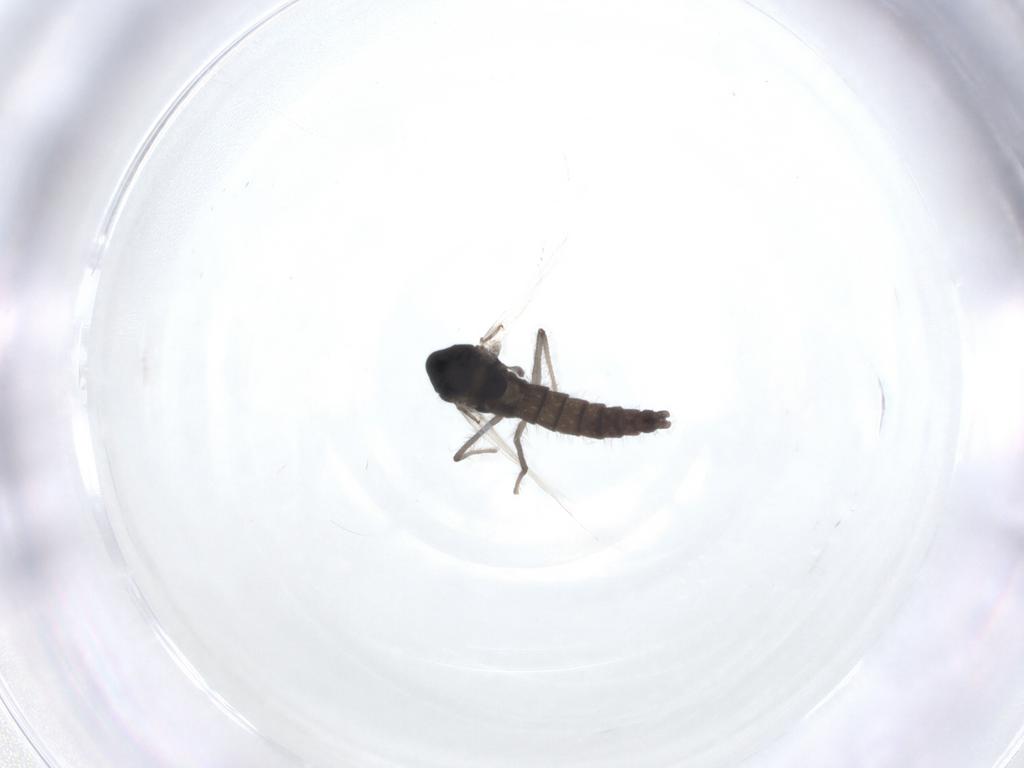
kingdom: Animalia
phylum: Arthropoda
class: Insecta
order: Diptera
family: Chironomidae
